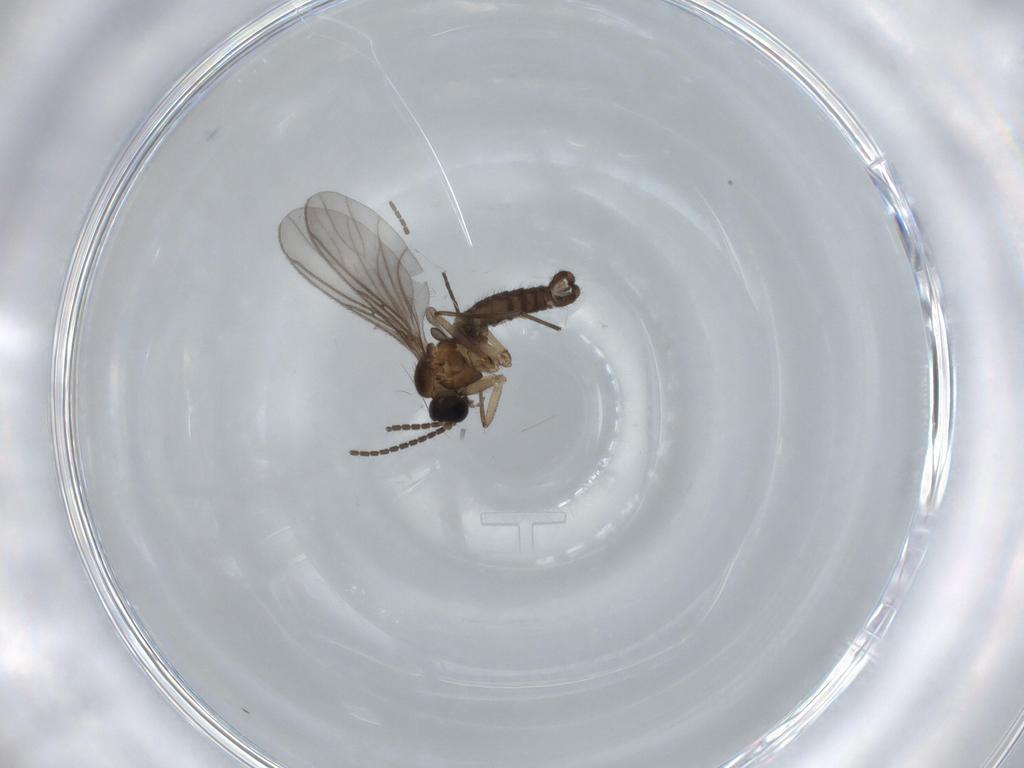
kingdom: Animalia
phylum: Arthropoda
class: Insecta
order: Diptera
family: Sciaridae
